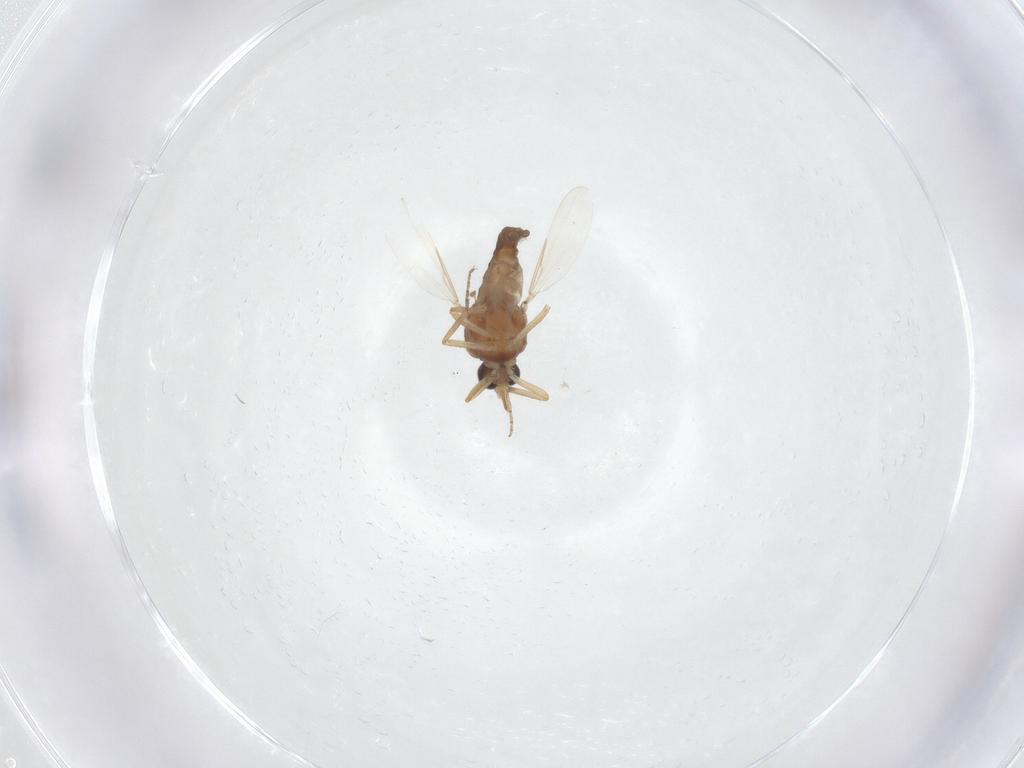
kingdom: Animalia
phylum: Arthropoda
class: Insecta
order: Diptera
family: Ceratopogonidae
